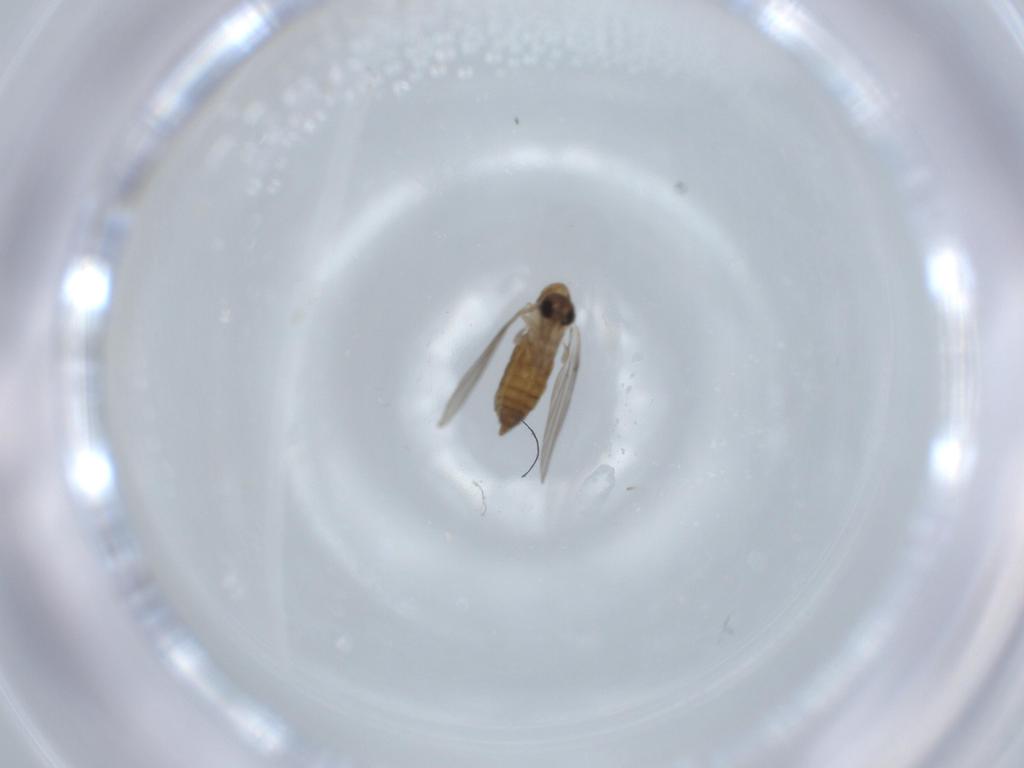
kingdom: Animalia
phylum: Arthropoda
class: Insecta
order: Diptera
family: Psychodidae
